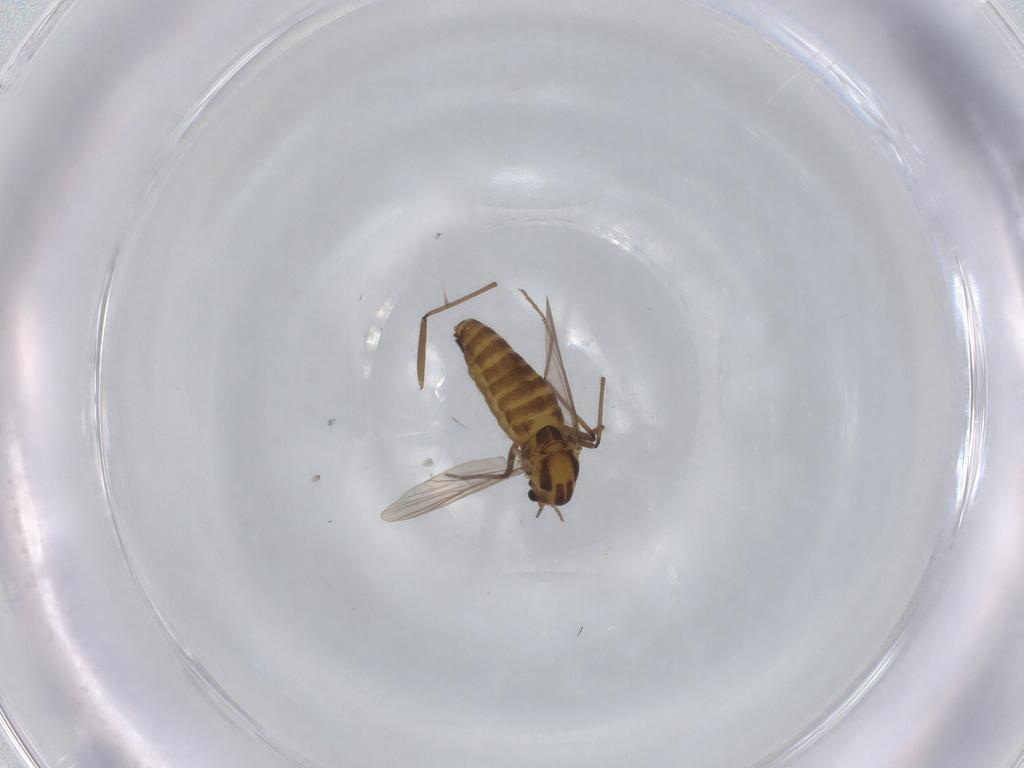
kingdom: Animalia
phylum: Arthropoda
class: Insecta
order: Diptera
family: Chironomidae
